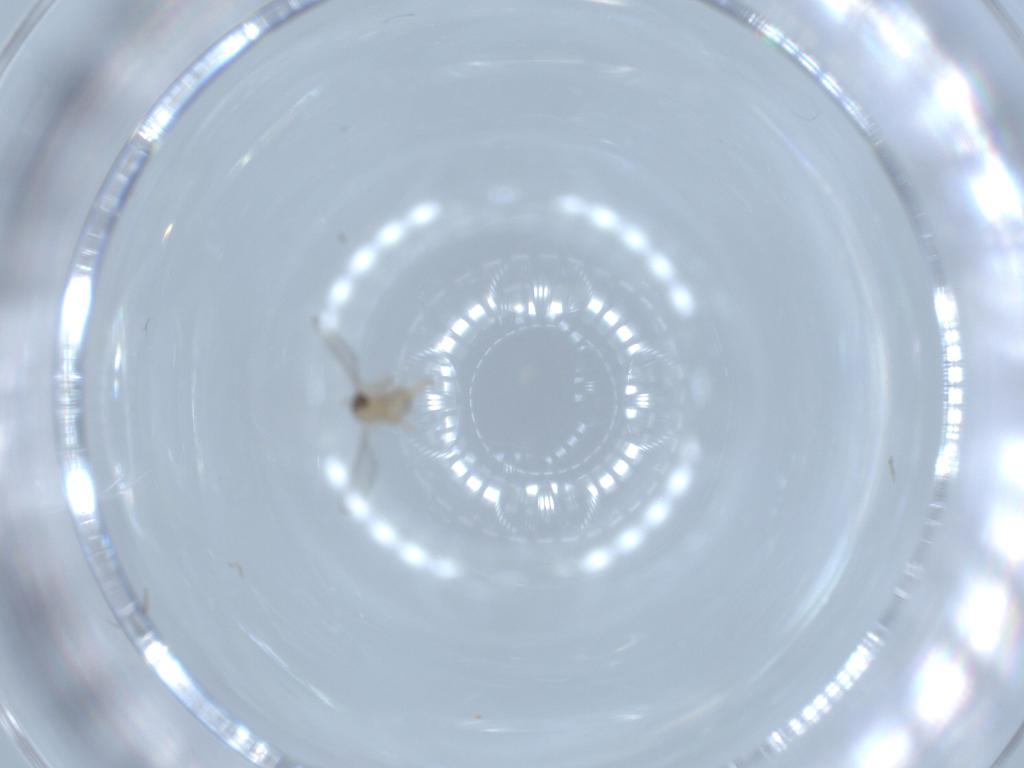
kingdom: Animalia
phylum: Arthropoda
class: Insecta
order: Diptera
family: Cecidomyiidae
